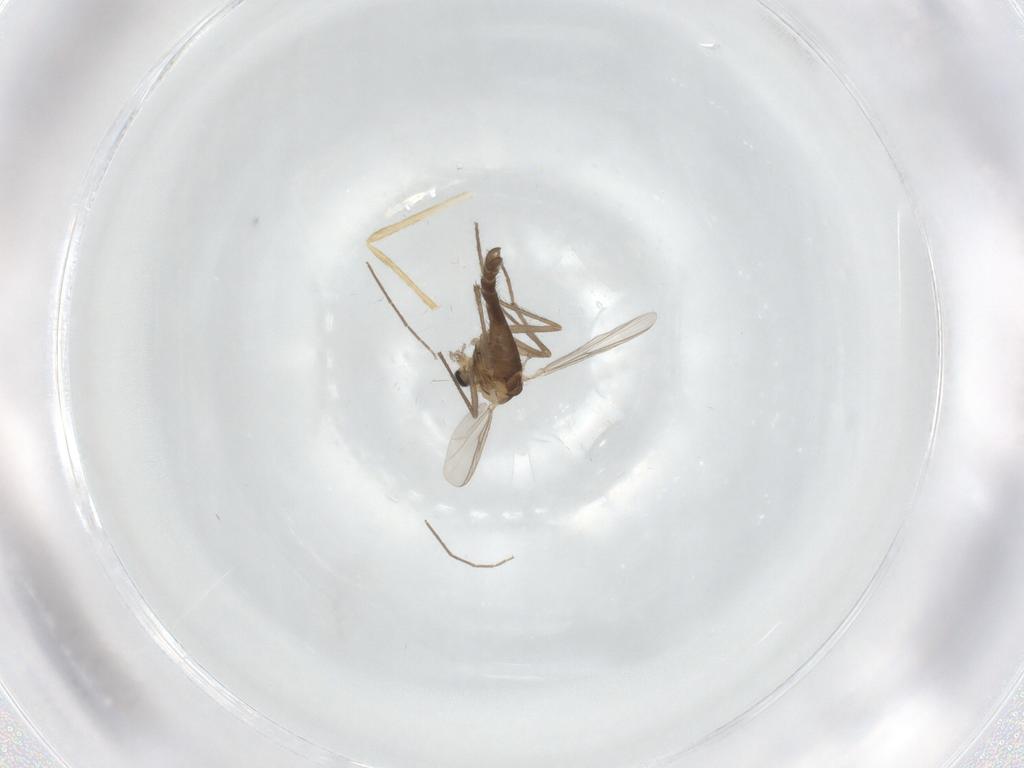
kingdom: Animalia
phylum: Arthropoda
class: Insecta
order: Diptera
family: Chironomidae
